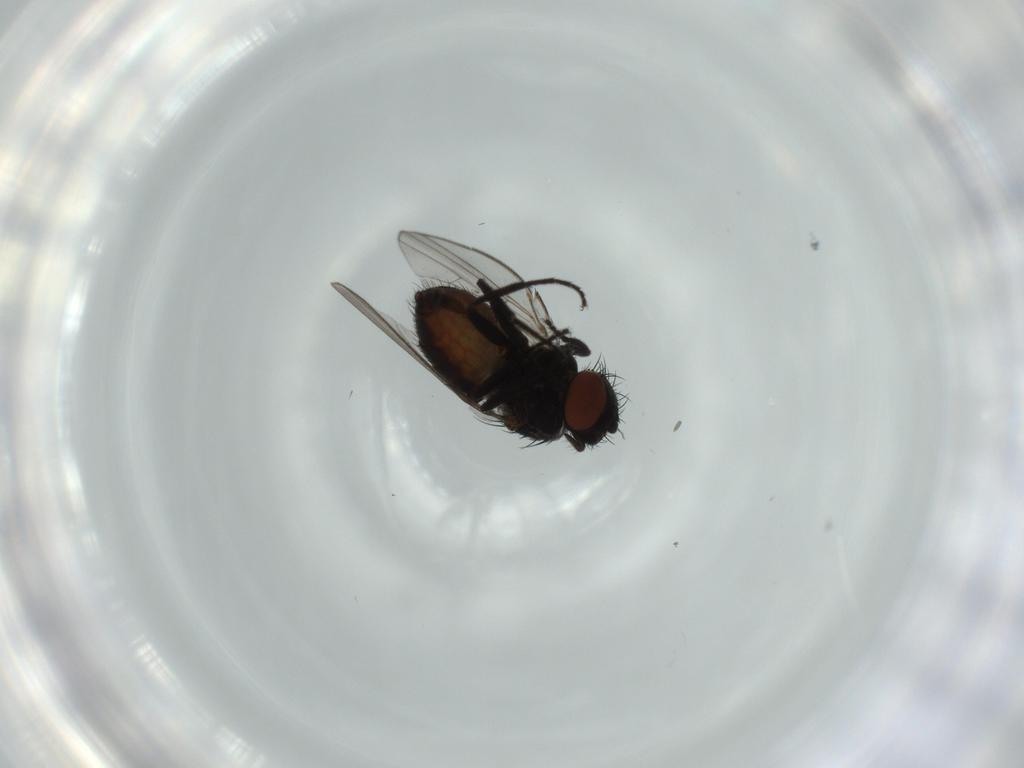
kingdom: Animalia
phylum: Arthropoda
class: Insecta
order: Diptera
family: Milichiidae
